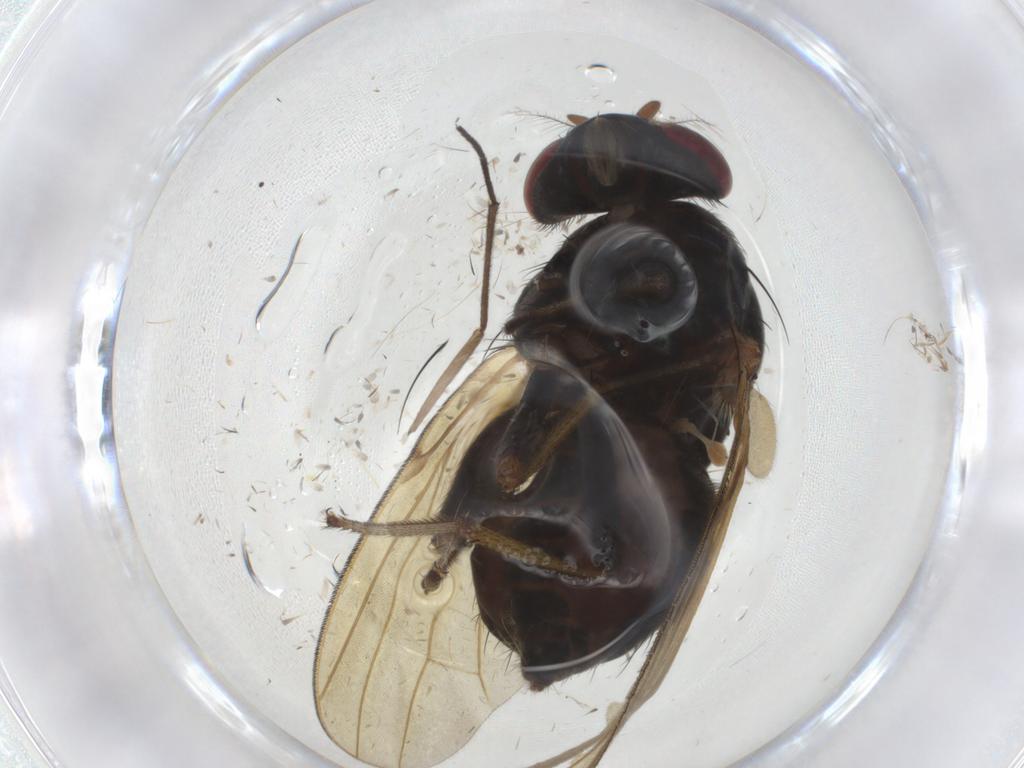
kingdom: Animalia
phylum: Arthropoda
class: Insecta
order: Diptera
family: Chironomidae
